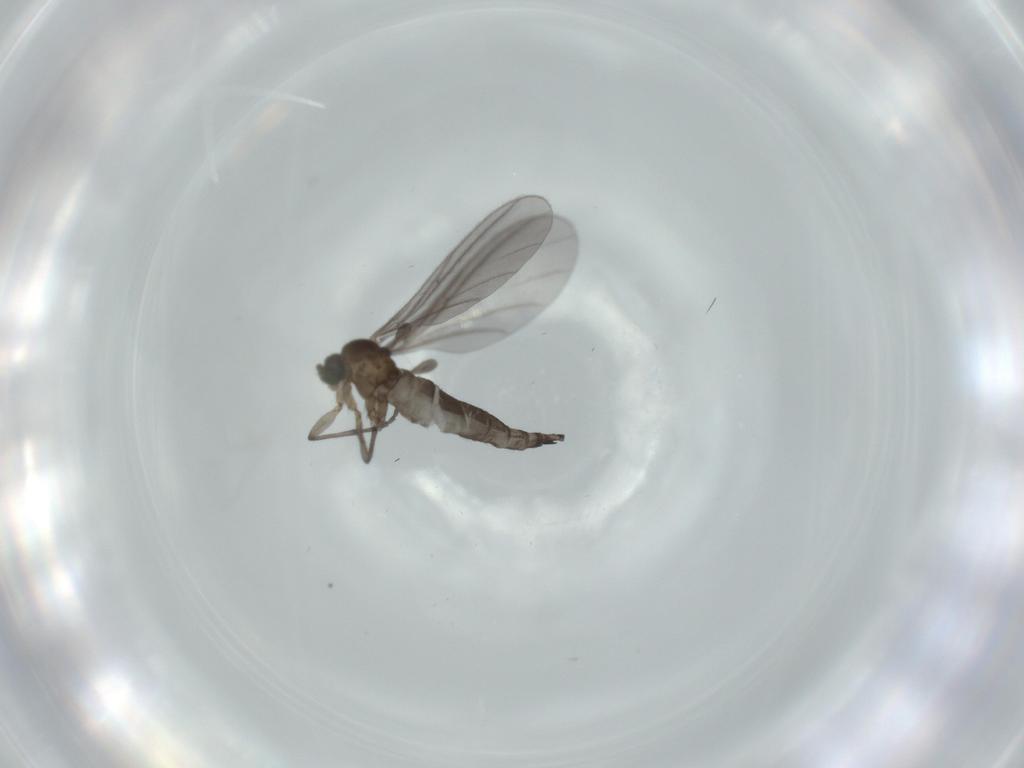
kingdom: Animalia
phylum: Arthropoda
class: Insecta
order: Diptera
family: Sciaridae
